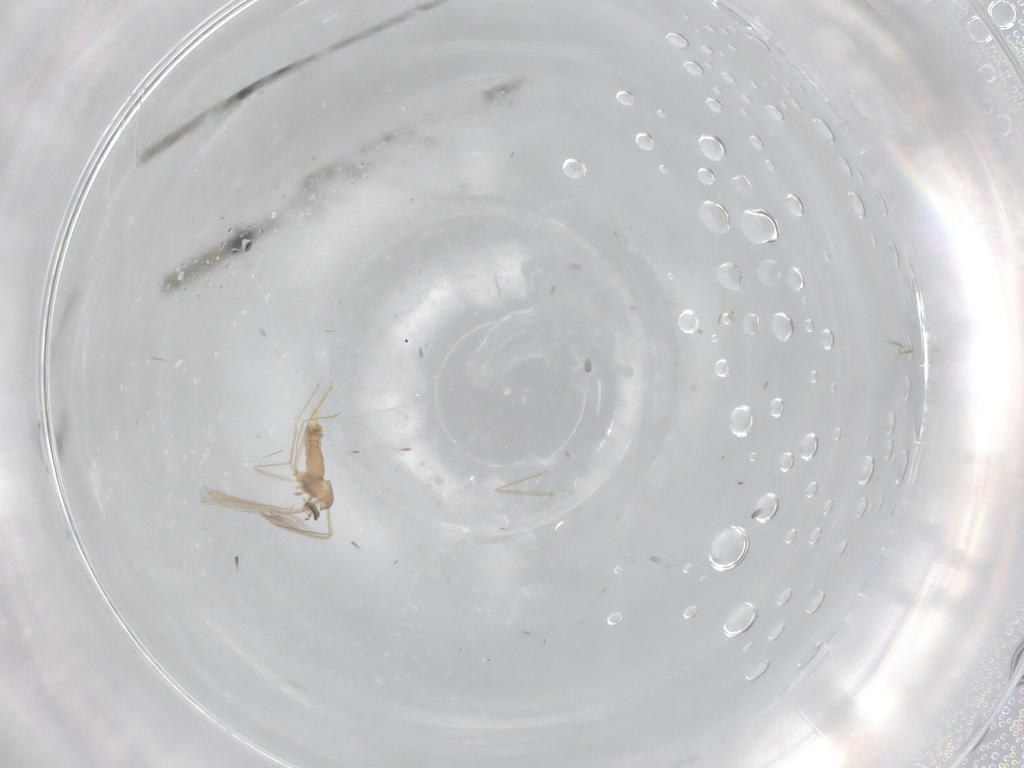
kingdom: Animalia
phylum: Arthropoda
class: Insecta
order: Diptera
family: Cecidomyiidae
